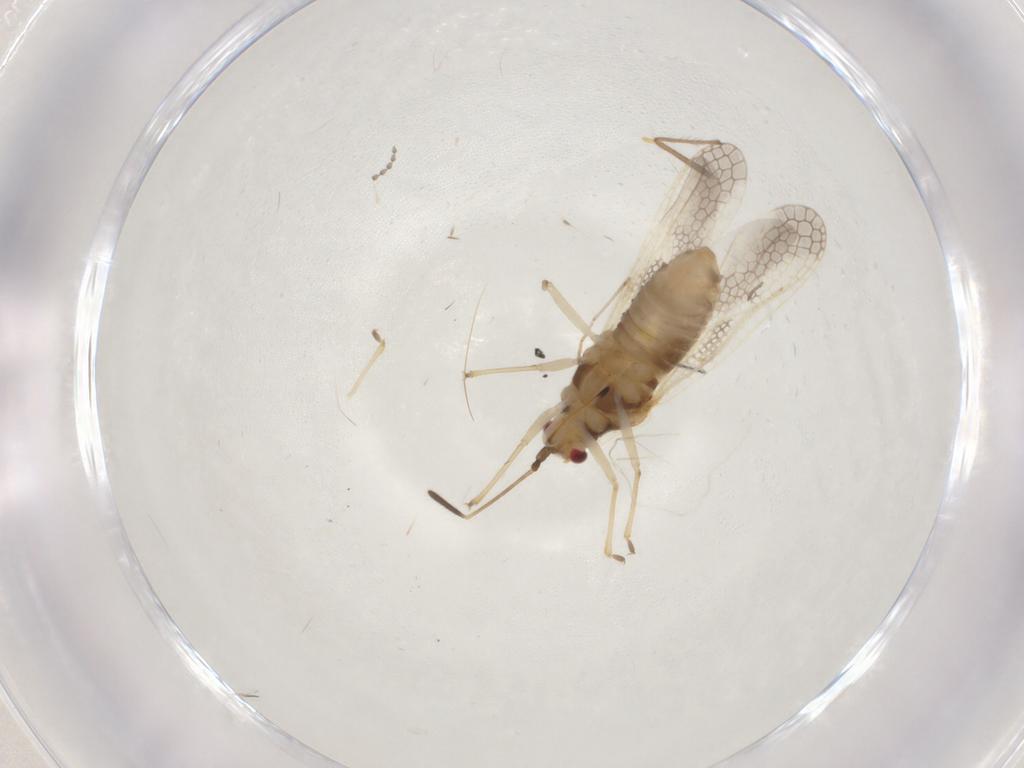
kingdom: Animalia
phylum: Arthropoda
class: Insecta
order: Hemiptera
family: Tingidae
